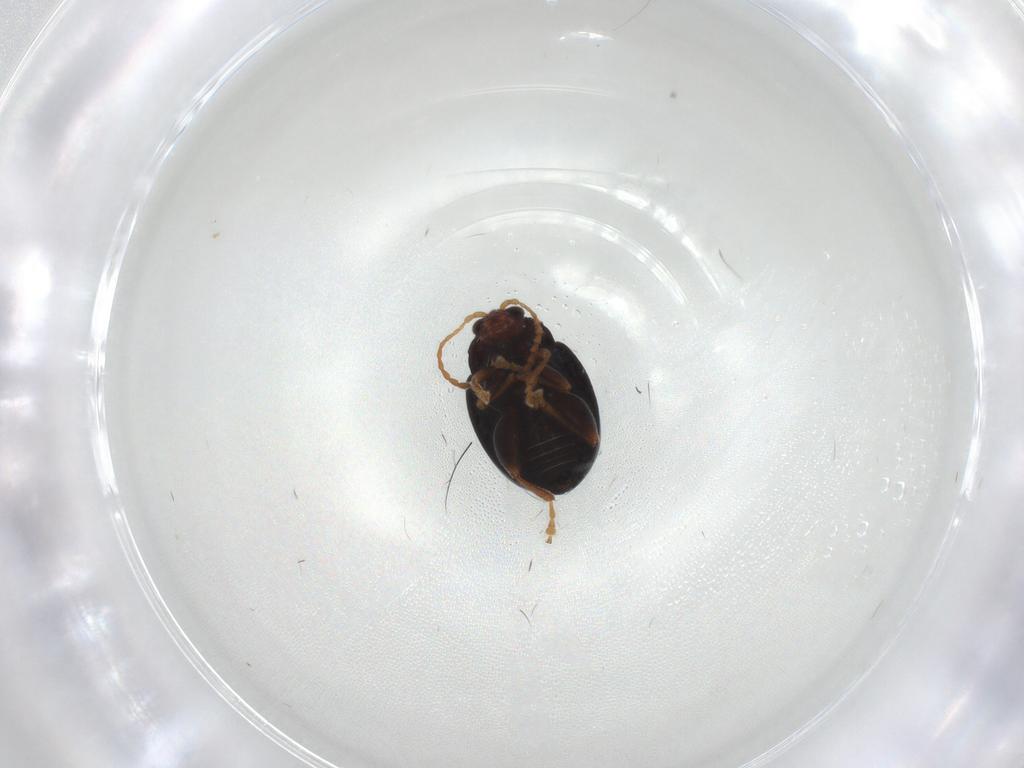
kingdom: Animalia
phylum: Arthropoda
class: Insecta
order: Coleoptera
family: Chrysomelidae
